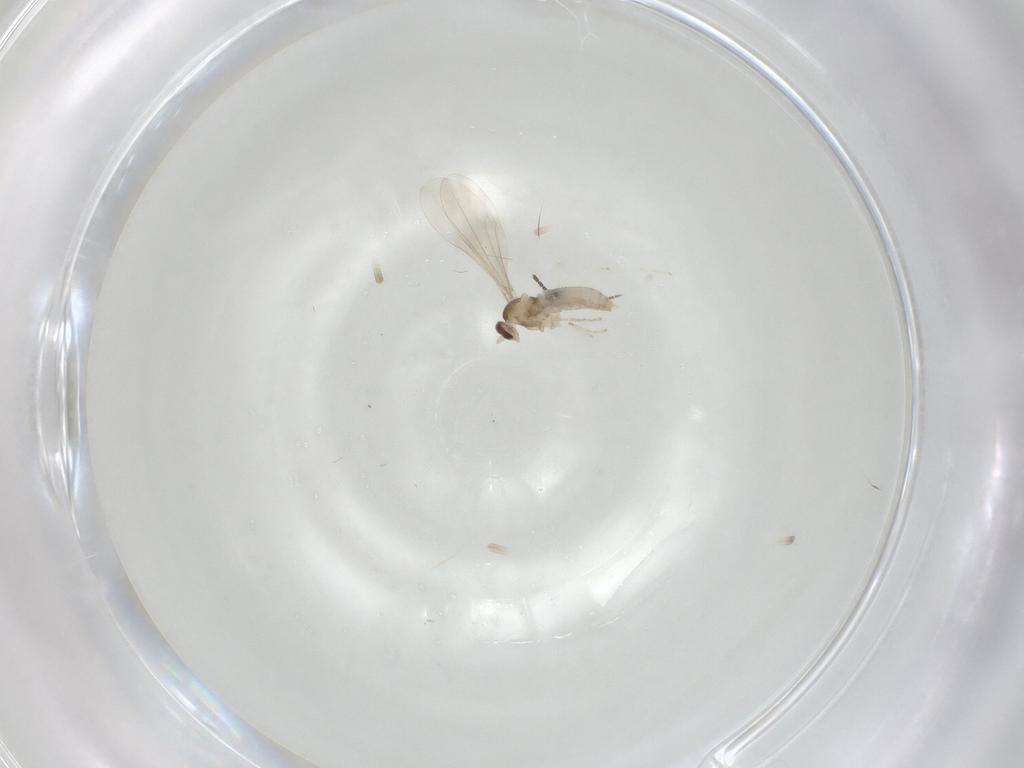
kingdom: Animalia
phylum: Arthropoda
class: Insecta
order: Diptera
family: Cecidomyiidae
